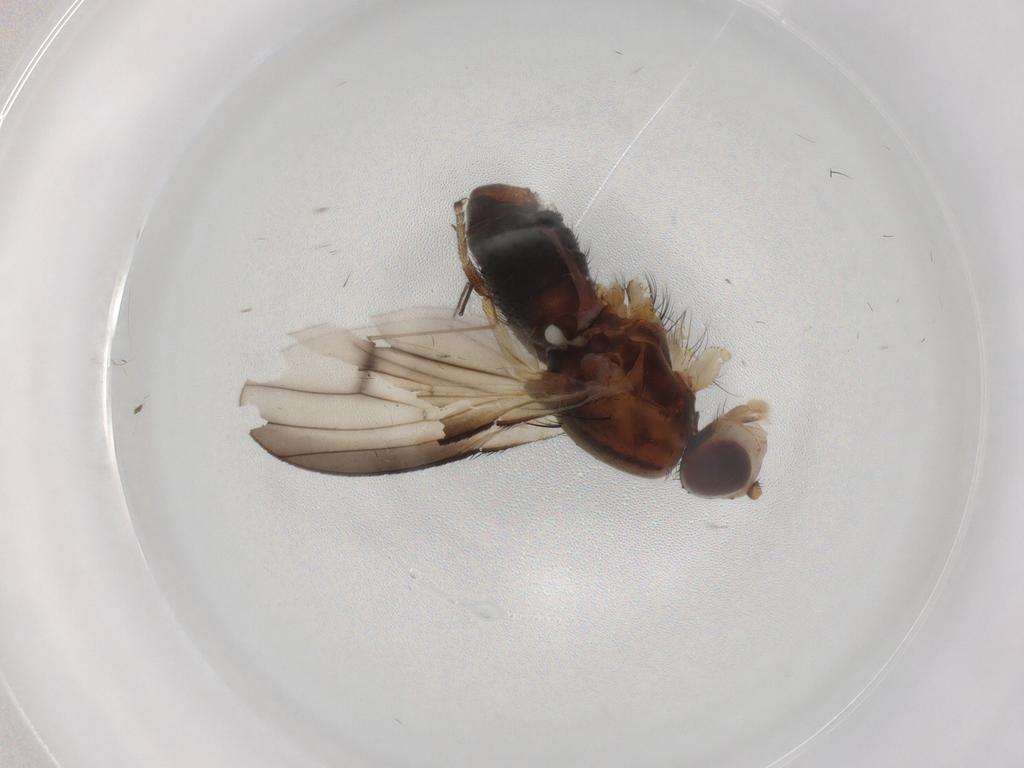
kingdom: Animalia
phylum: Arthropoda
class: Insecta
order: Diptera
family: Heleomyzidae
